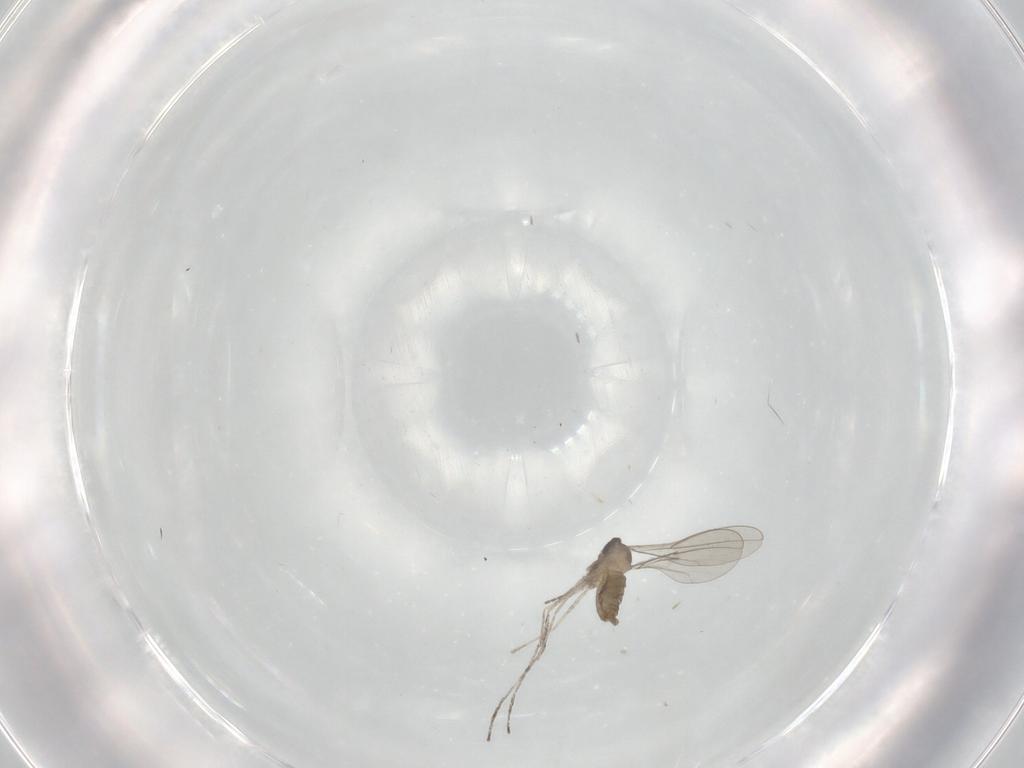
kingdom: Animalia
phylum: Arthropoda
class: Insecta
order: Diptera
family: Cecidomyiidae
